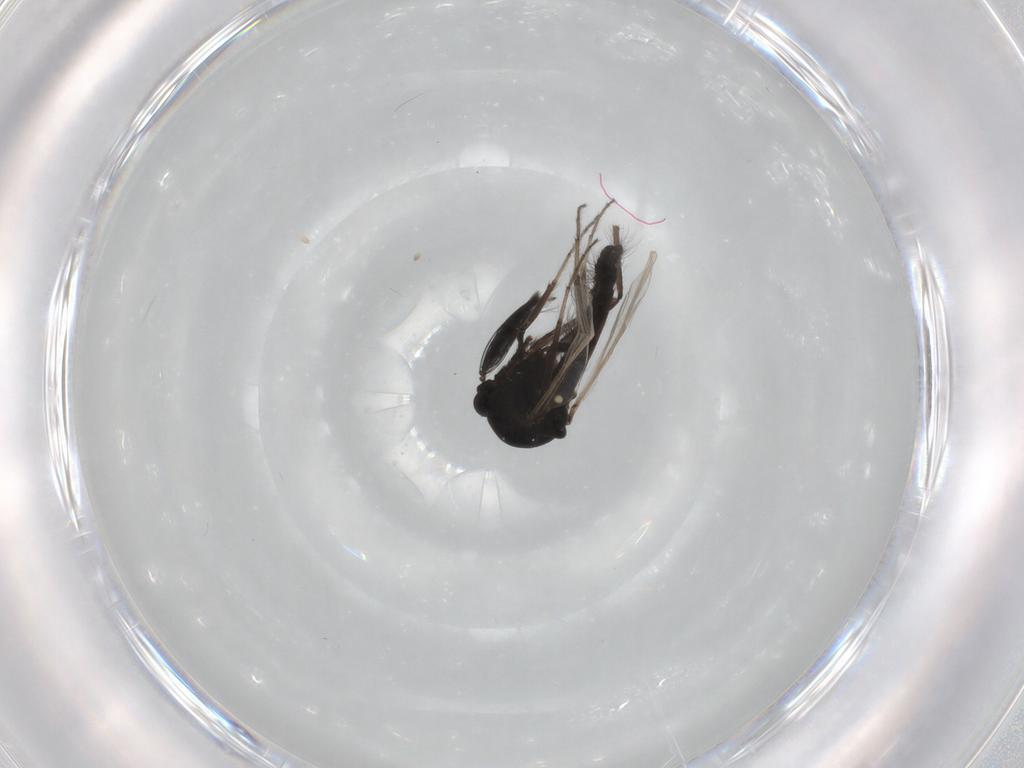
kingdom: Animalia
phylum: Arthropoda
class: Insecta
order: Diptera
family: Ceratopogonidae
